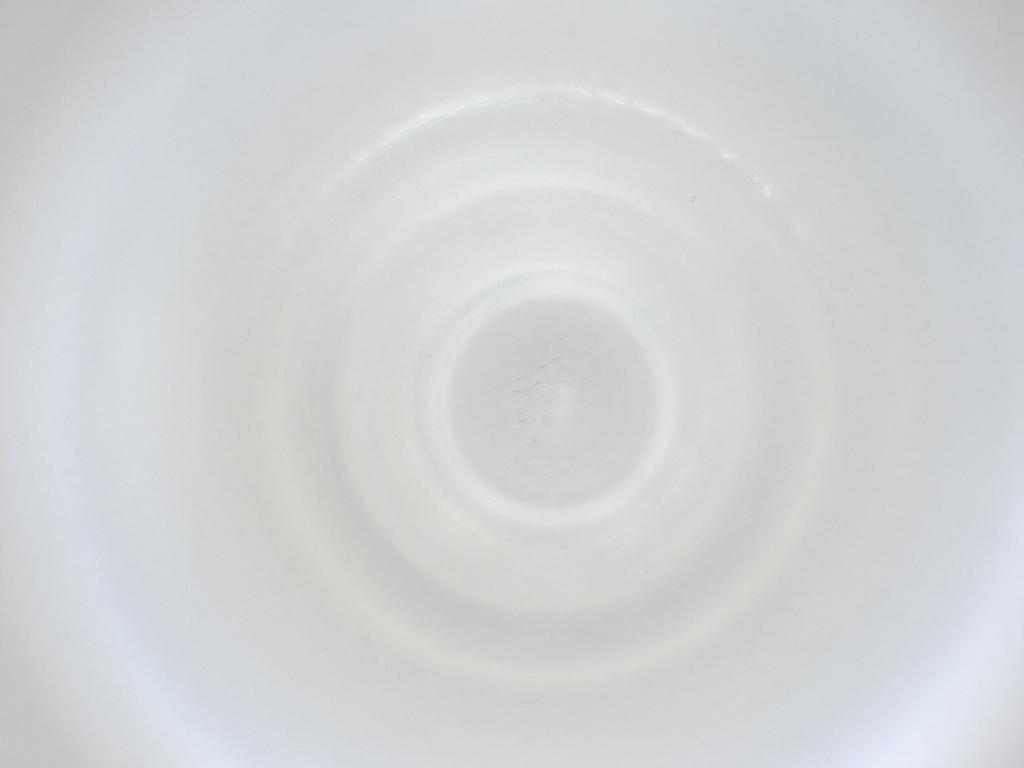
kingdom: Animalia
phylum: Arthropoda
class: Insecta
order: Diptera
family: Cecidomyiidae
